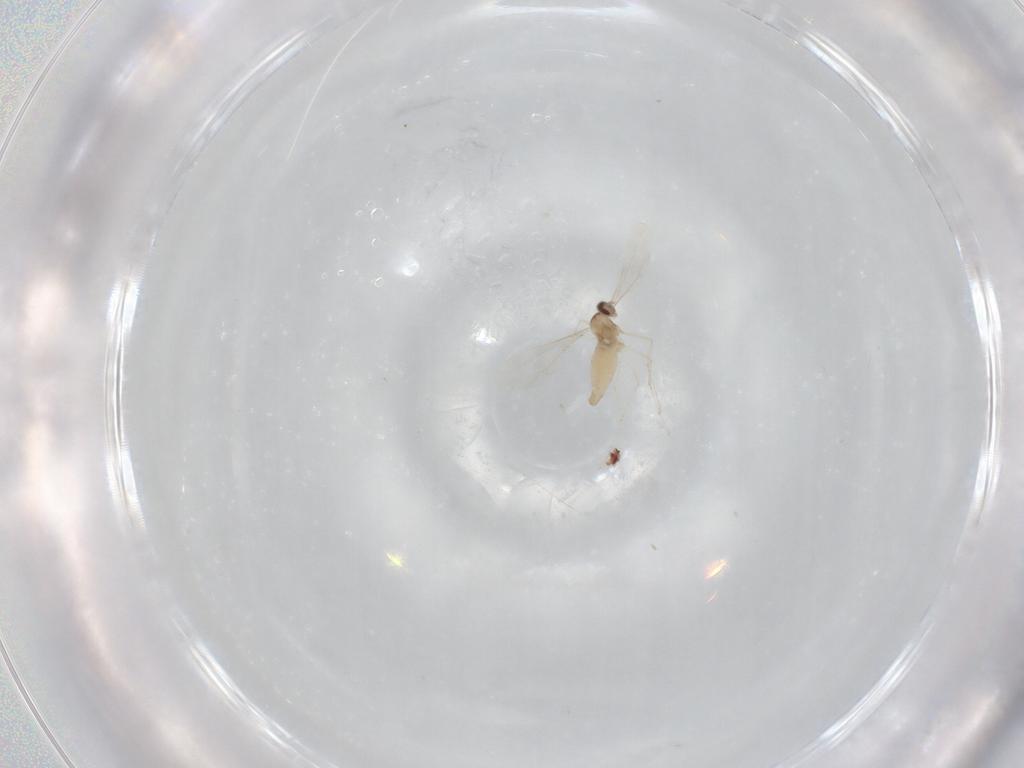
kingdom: Animalia
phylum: Arthropoda
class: Insecta
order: Diptera
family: Cecidomyiidae
